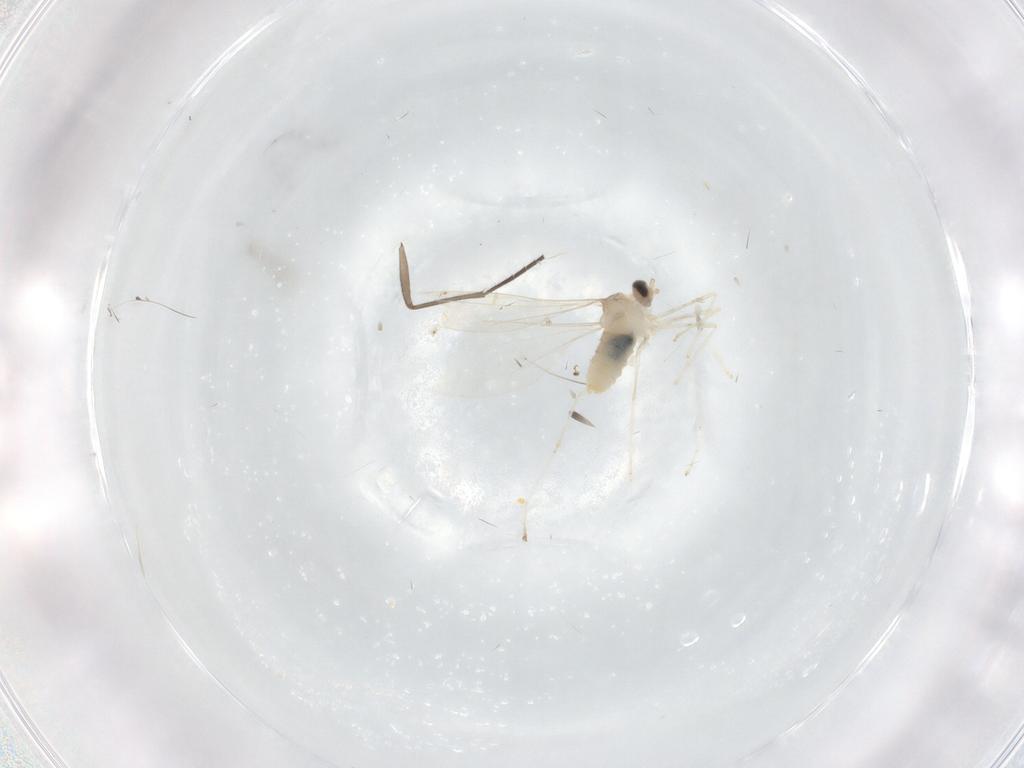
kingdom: Animalia
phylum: Arthropoda
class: Insecta
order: Diptera
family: Cecidomyiidae
